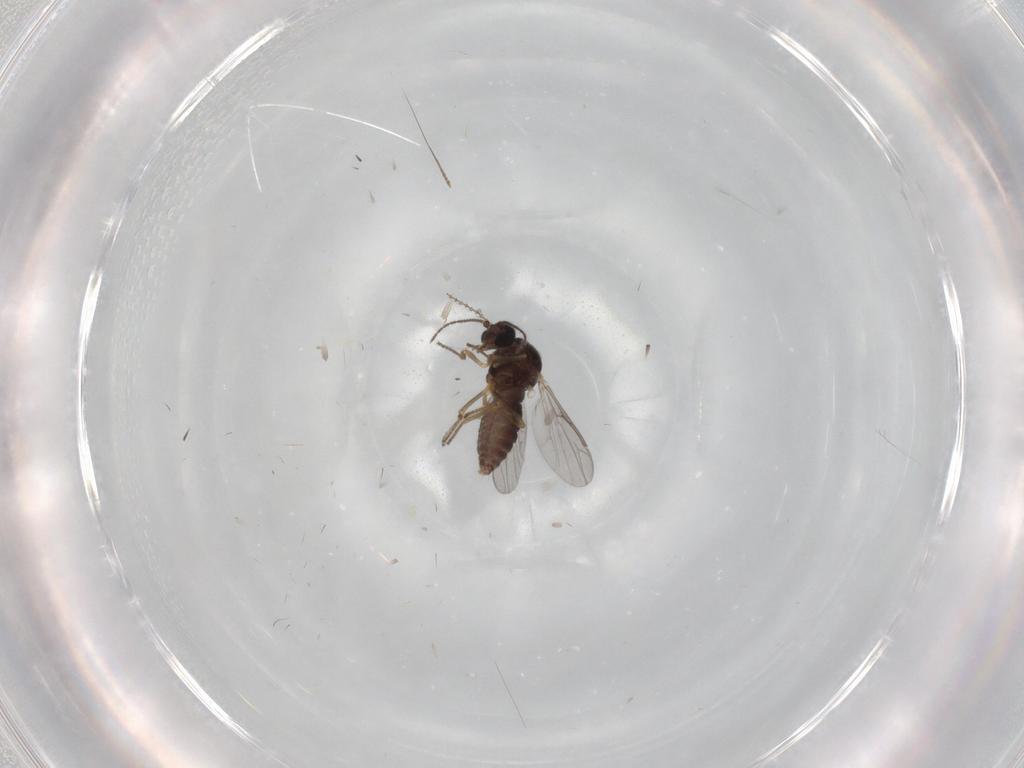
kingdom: Animalia
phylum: Arthropoda
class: Insecta
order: Diptera
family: Ceratopogonidae
